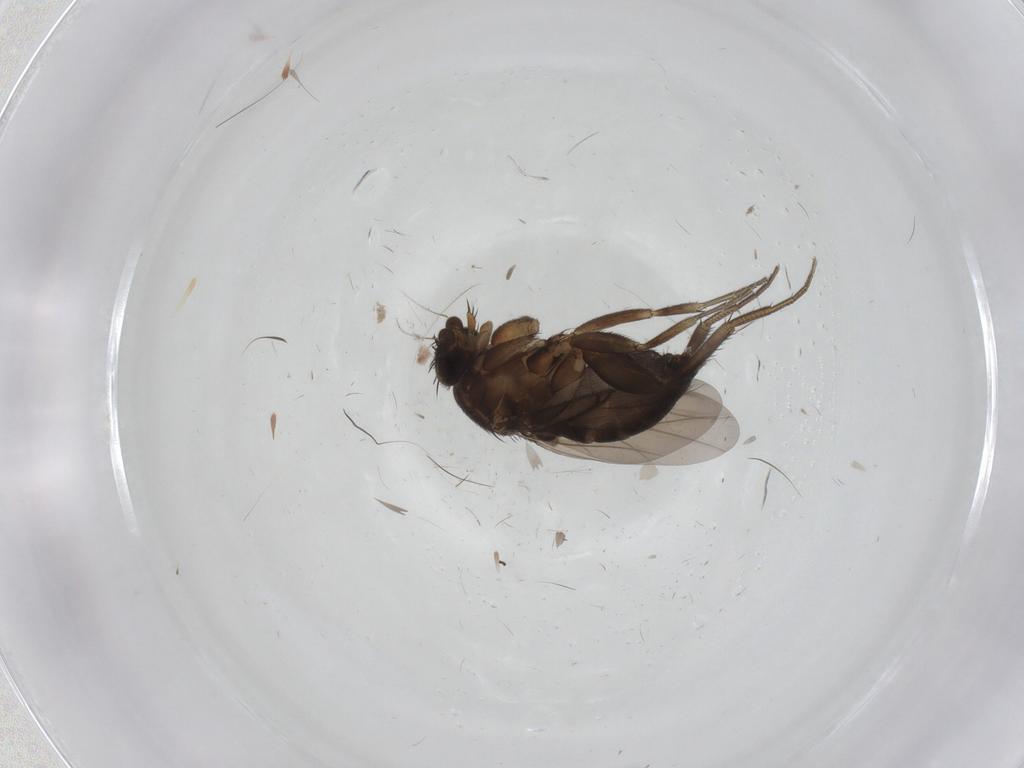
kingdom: Animalia
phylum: Arthropoda
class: Insecta
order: Diptera
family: Phoridae
